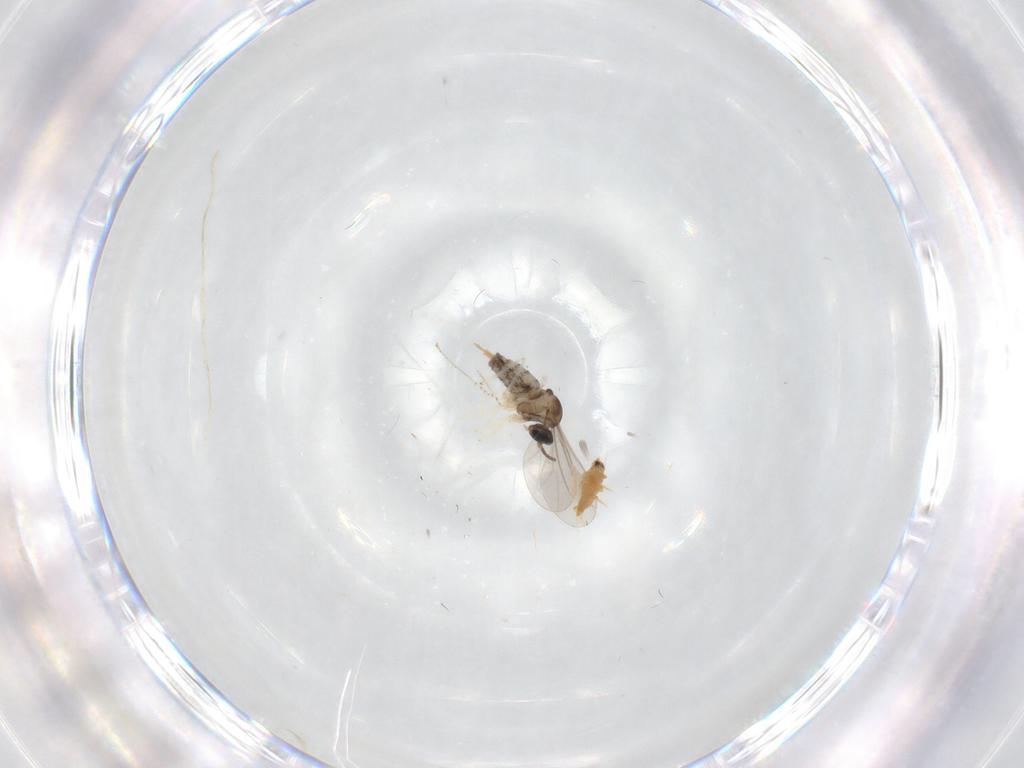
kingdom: Animalia
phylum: Arthropoda
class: Insecta
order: Diptera
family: Cecidomyiidae
